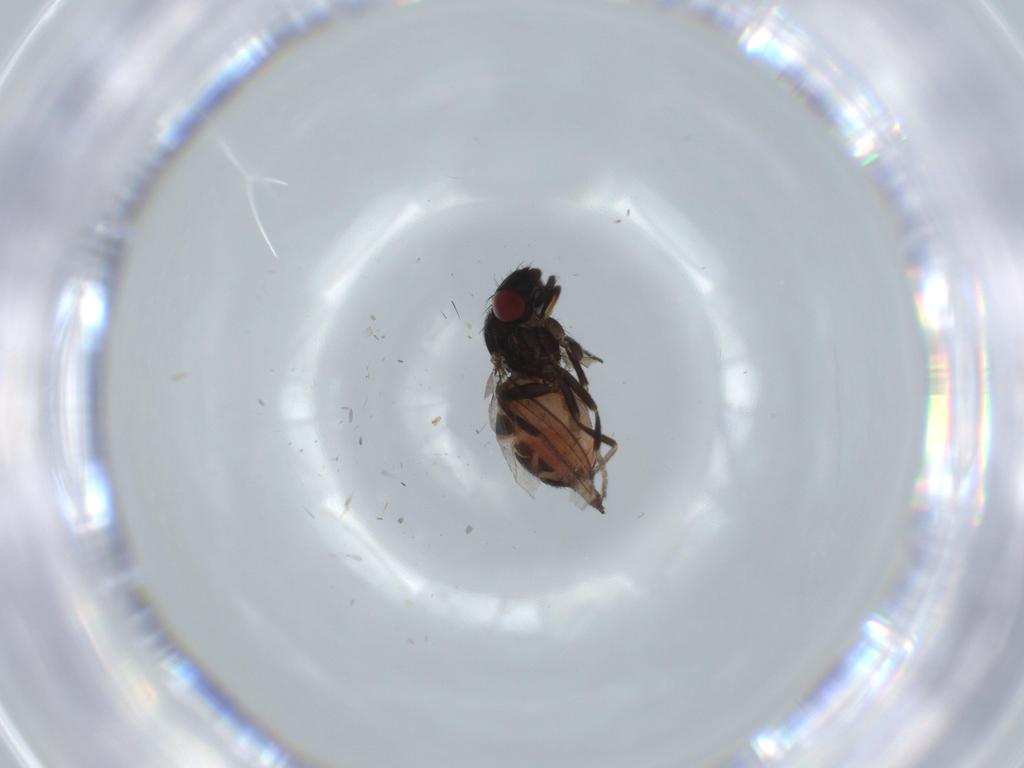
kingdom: Animalia
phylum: Arthropoda
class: Insecta
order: Diptera
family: Milichiidae
